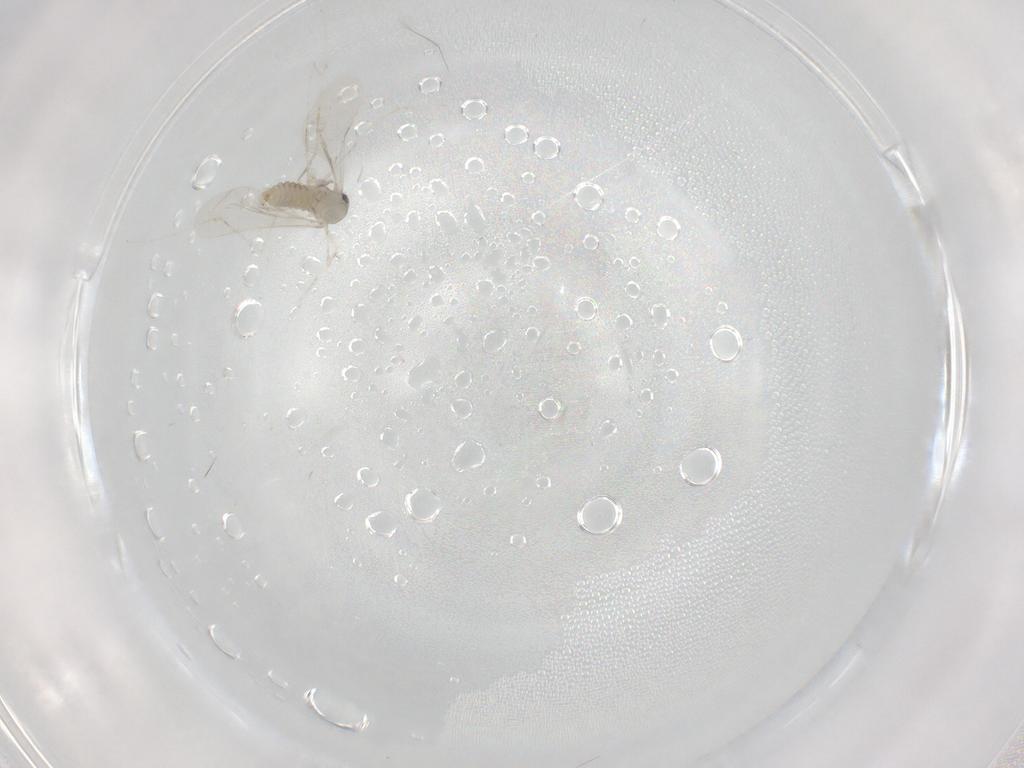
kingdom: Animalia
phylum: Arthropoda
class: Insecta
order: Diptera
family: Cecidomyiidae
